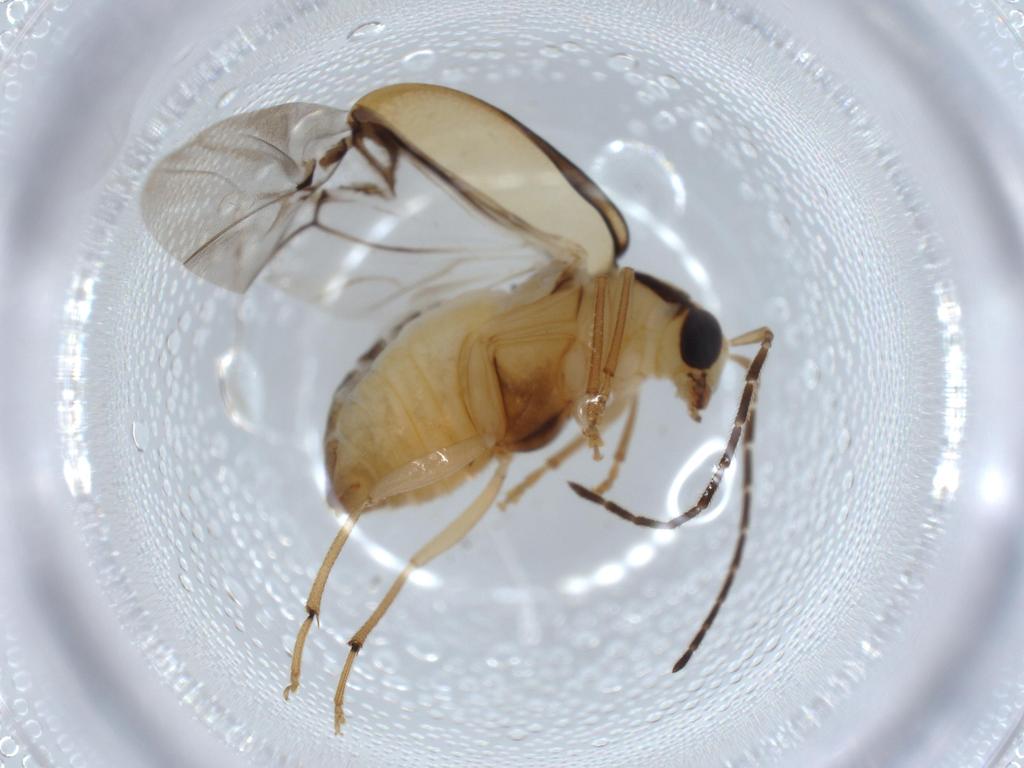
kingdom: Animalia
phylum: Arthropoda
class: Insecta
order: Coleoptera
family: Chrysomelidae
